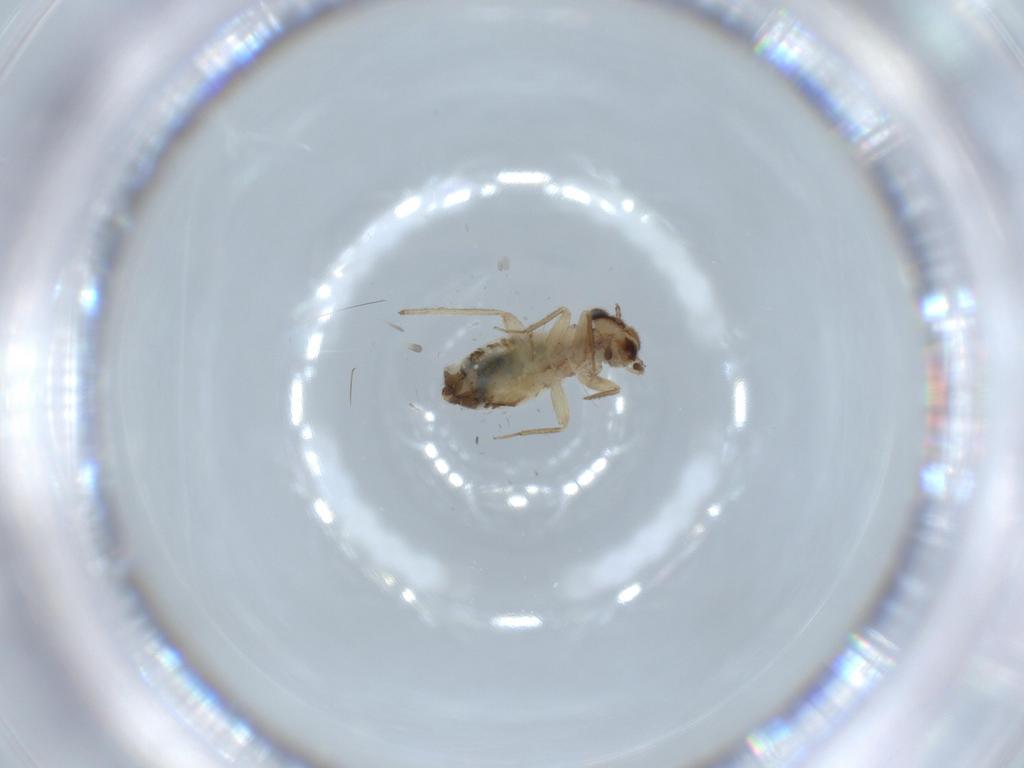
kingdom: Animalia
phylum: Arthropoda
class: Insecta
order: Psocodea
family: Lepidopsocidae
